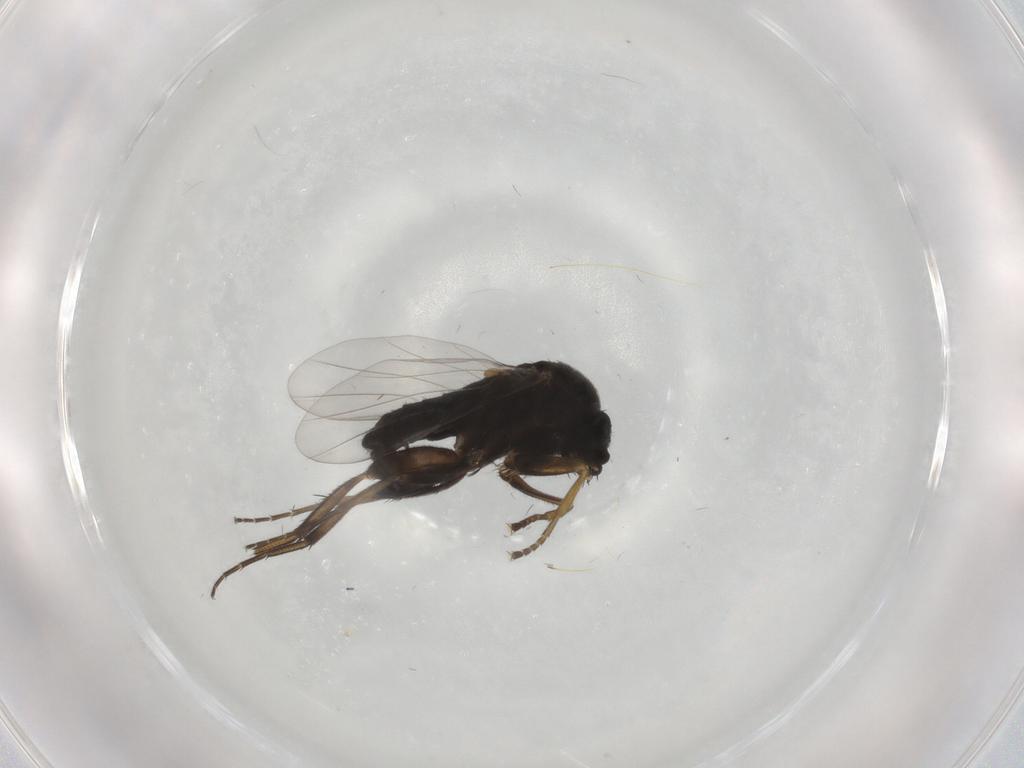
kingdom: Animalia
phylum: Arthropoda
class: Insecta
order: Diptera
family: Phoridae
